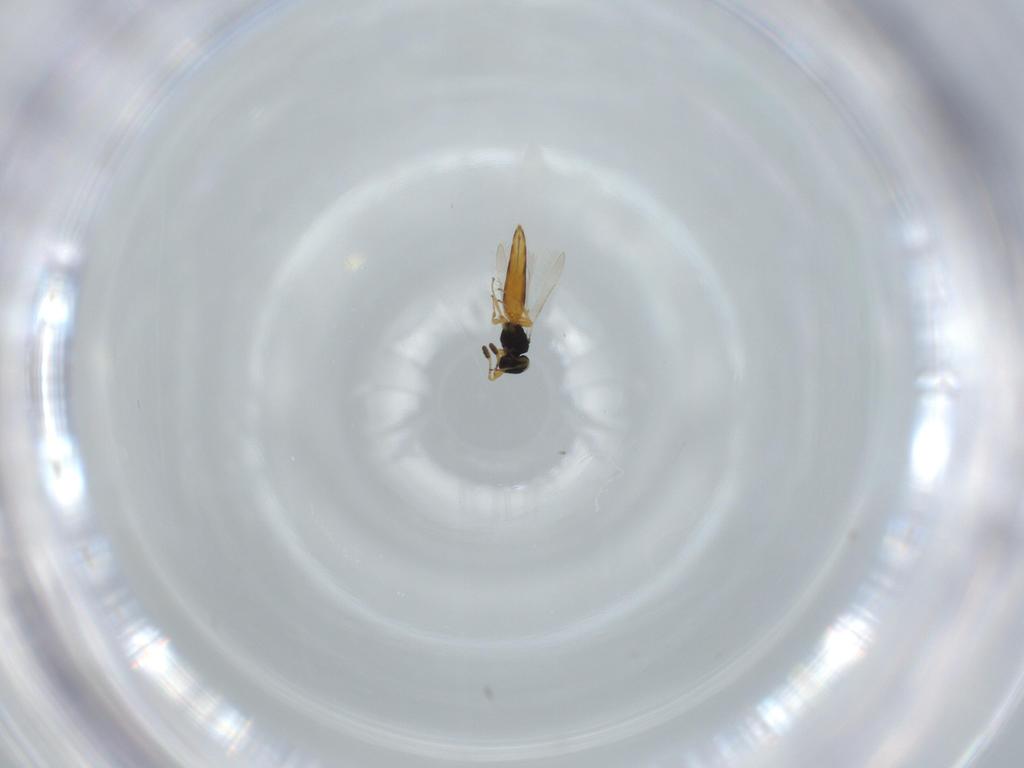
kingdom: Animalia
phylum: Arthropoda
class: Insecta
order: Hymenoptera
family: Scelionidae
